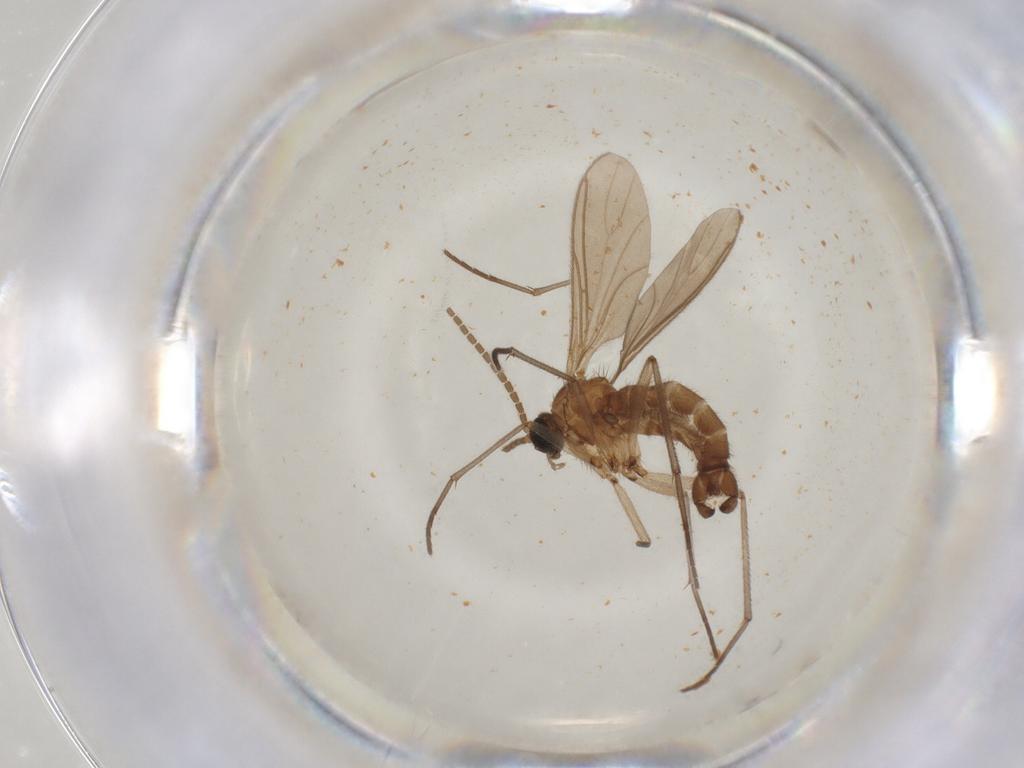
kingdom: Animalia
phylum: Arthropoda
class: Insecta
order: Diptera
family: Sciaridae
